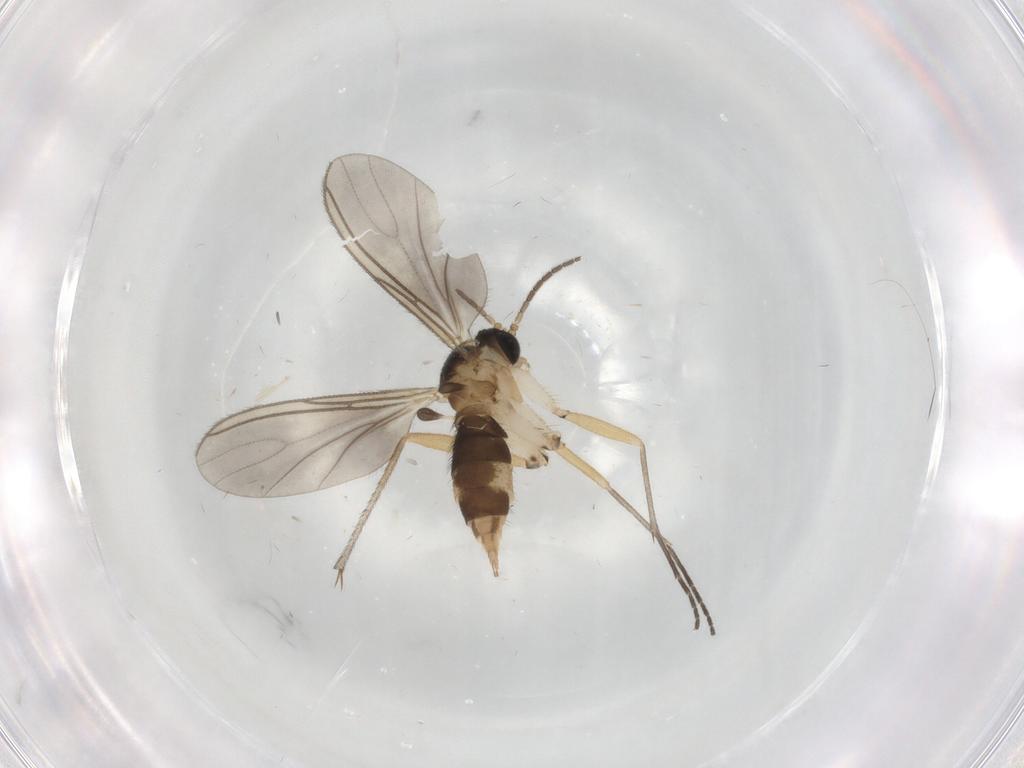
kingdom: Animalia
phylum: Arthropoda
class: Insecta
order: Diptera
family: Sciaridae
